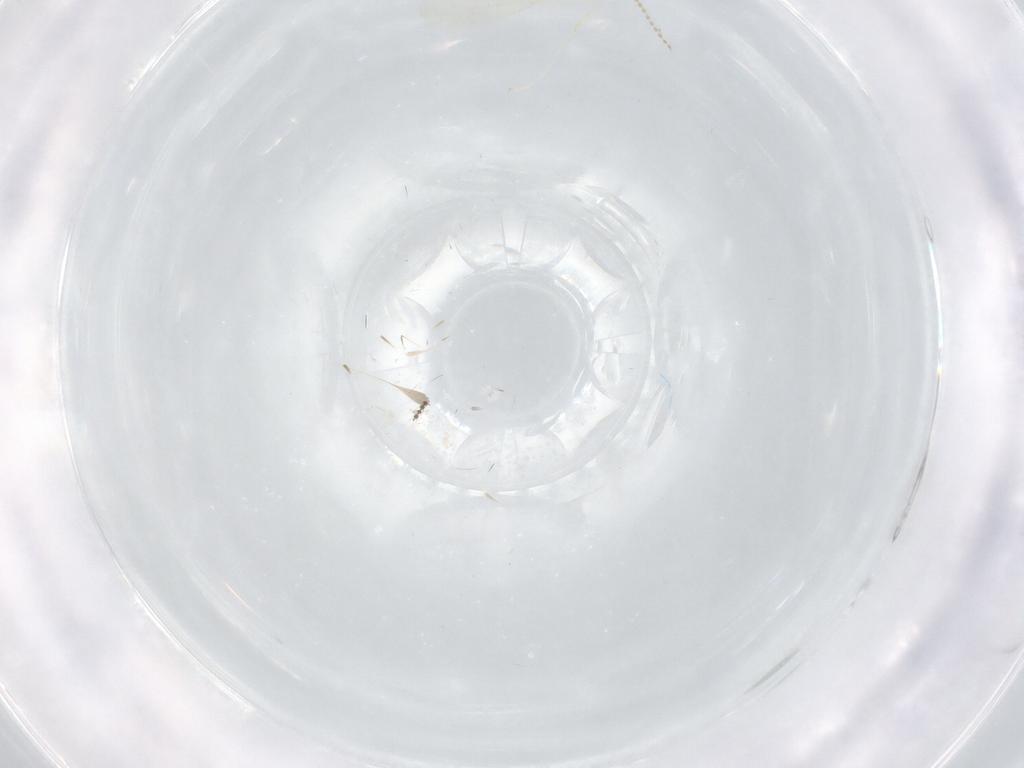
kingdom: Animalia
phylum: Arthropoda
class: Insecta
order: Diptera
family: Cecidomyiidae
